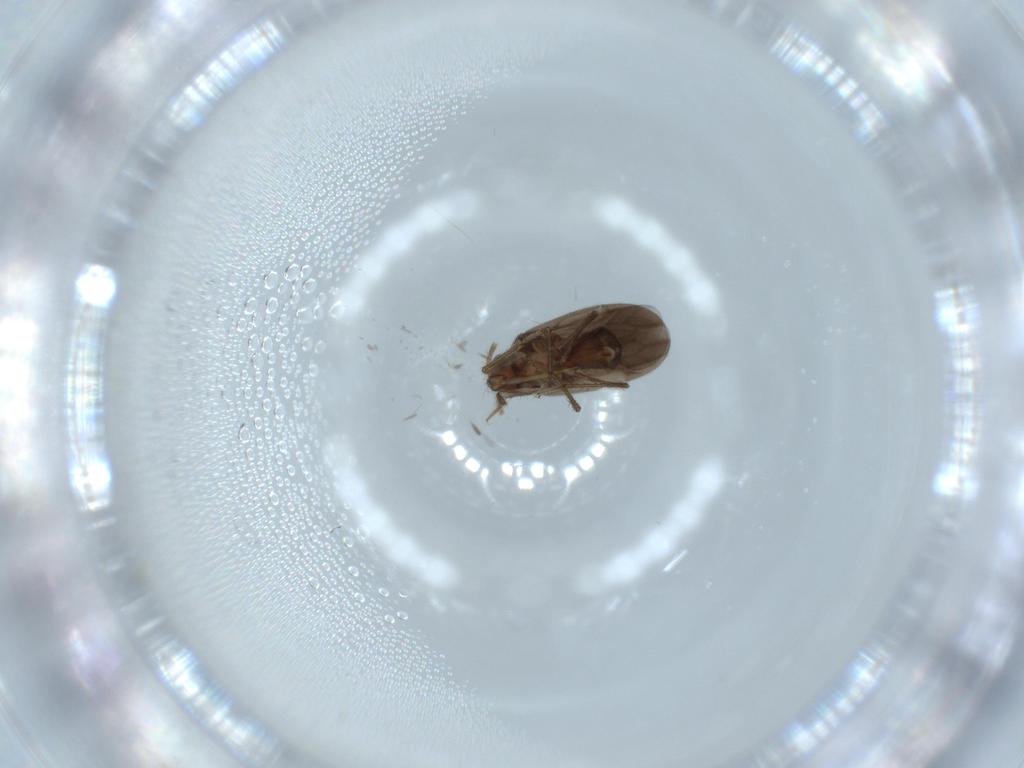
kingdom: Animalia
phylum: Arthropoda
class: Insecta
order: Hemiptera
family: Ceratocombidae
